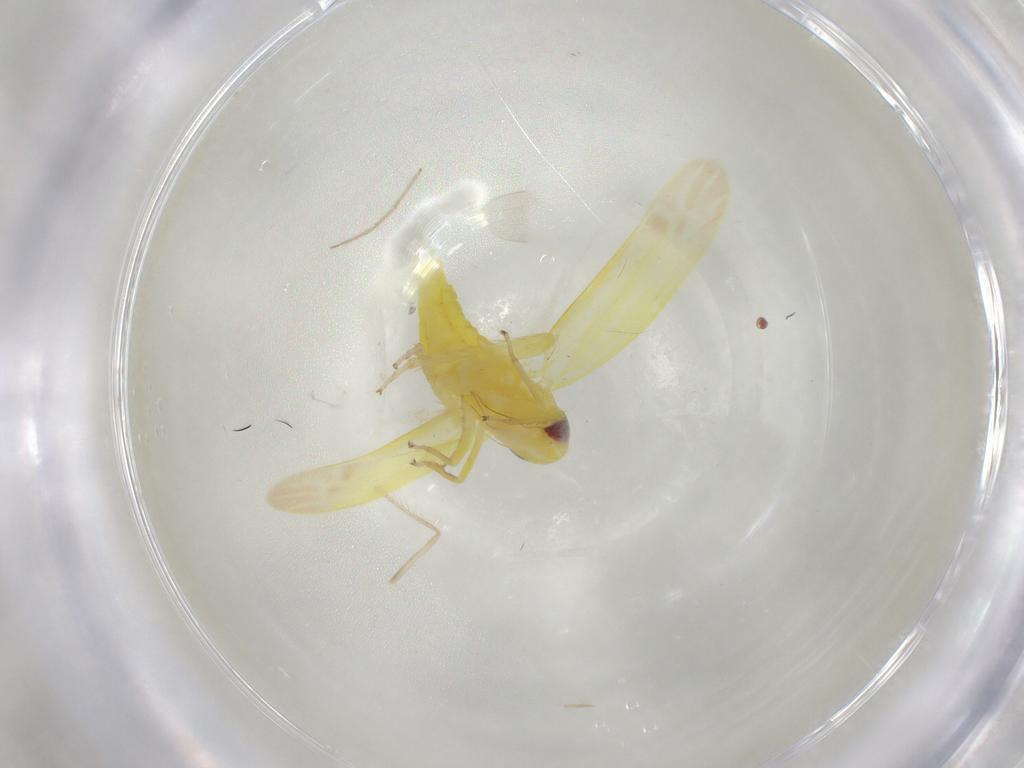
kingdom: Animalia
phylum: Arthropoda
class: Insecta
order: Hemiptera
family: Cicadellidae
